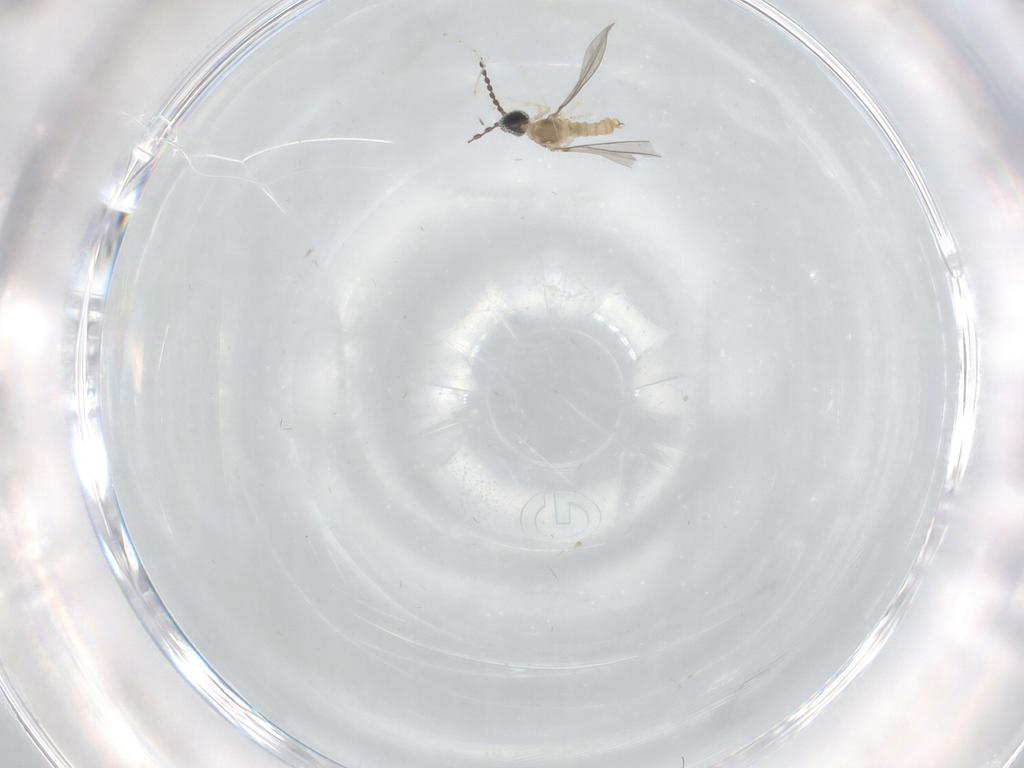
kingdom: Animalia
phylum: Arthropoda
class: Insecta
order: Diptera
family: Cecidomyiidae
